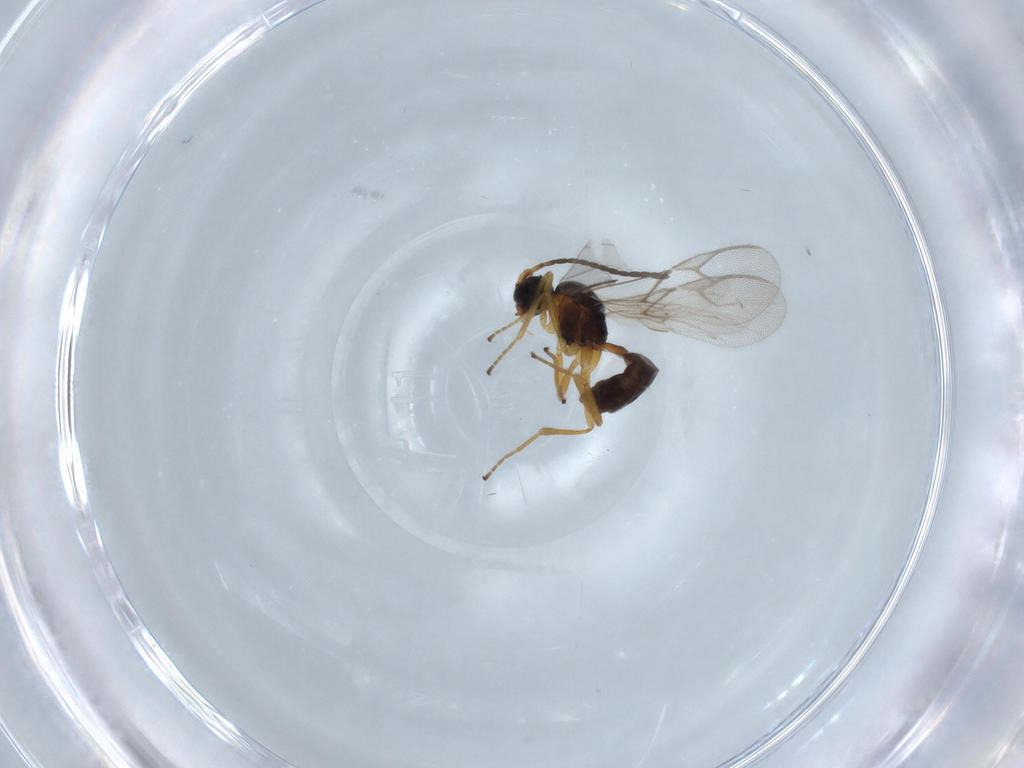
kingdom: Animalia
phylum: Arthropoda
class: Insecta
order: Hymenoptera
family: Braconidae
